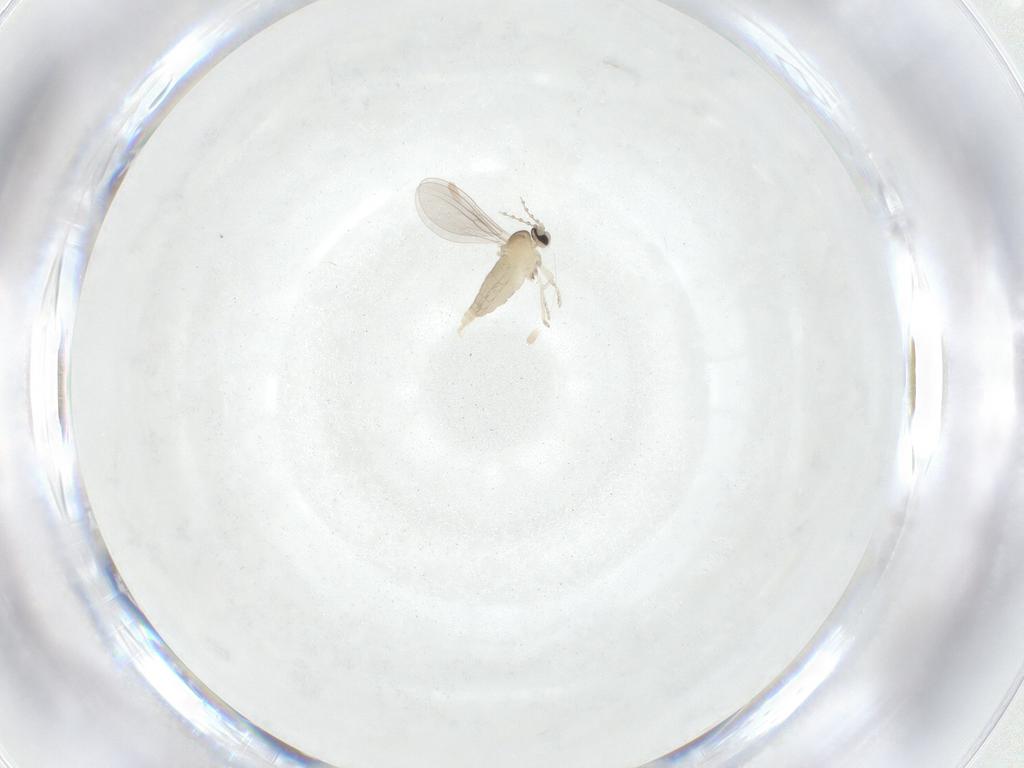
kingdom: Animalia
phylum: Arthropoda
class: Insecta
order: Diptera
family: Cecidomyiidae
